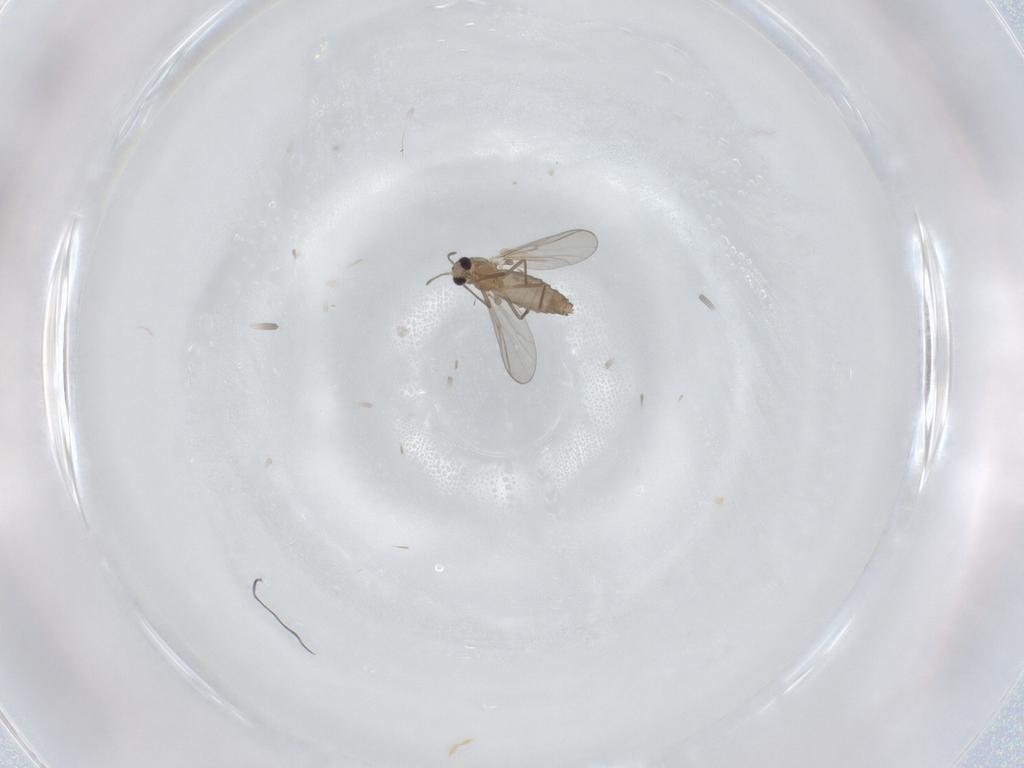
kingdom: Animalia
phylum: Arthropoda
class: Insecta
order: Diptera
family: Chironomidae
